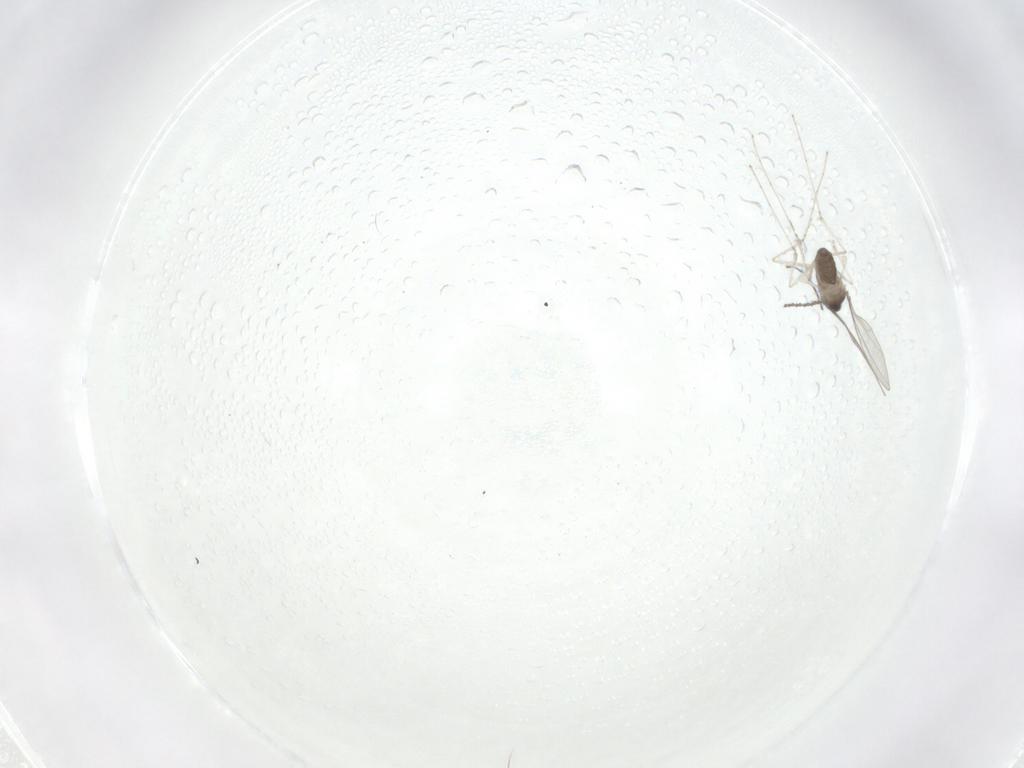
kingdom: Animalia
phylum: Arthropoda
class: Insecta
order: Diptera
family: Cecidomyiidae
